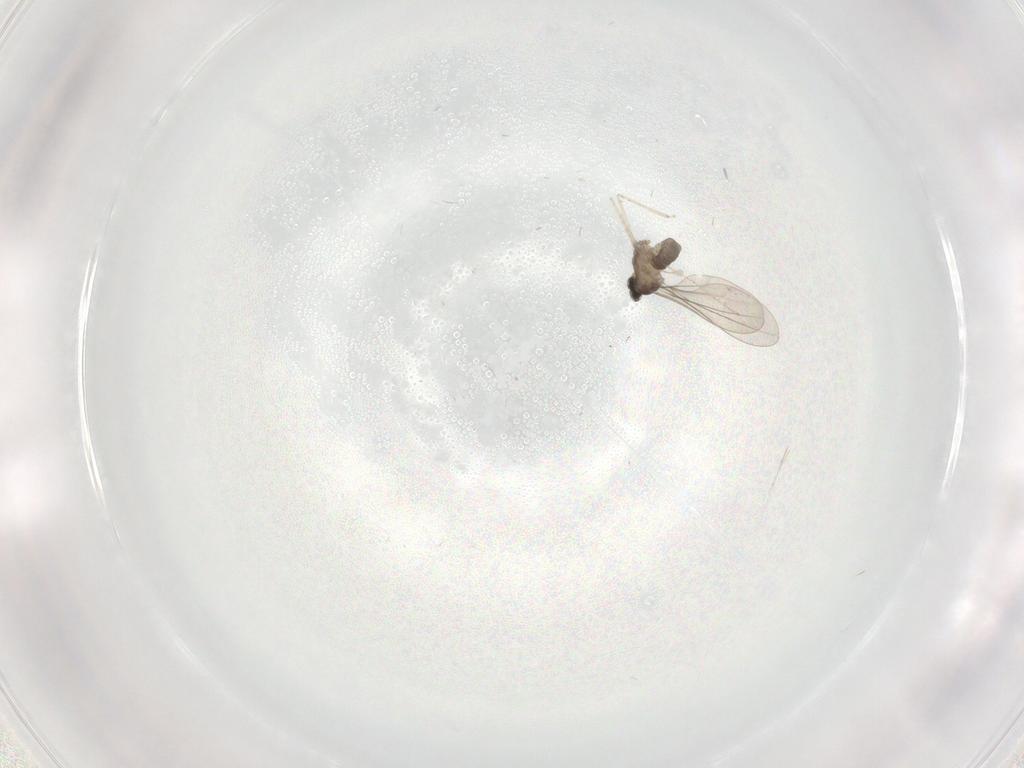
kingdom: Animalia
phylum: Arthropoda
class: Insecta
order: Diptera
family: Cecidomyiidae
